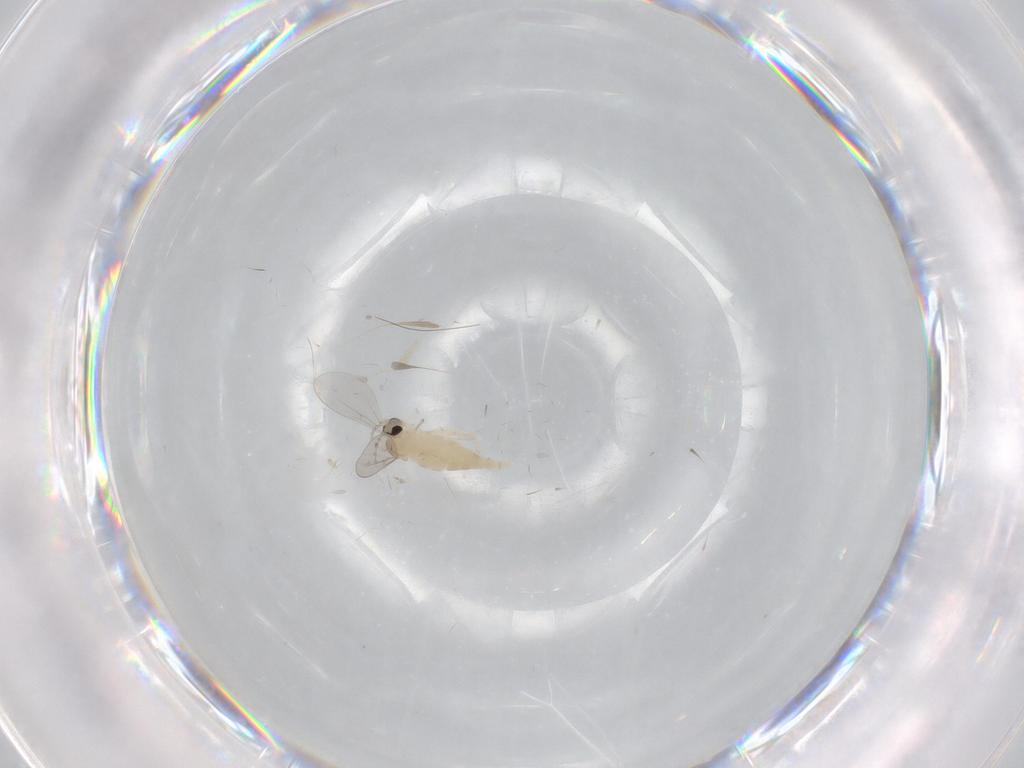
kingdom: Animalia
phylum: Arthropoda
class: Insecta
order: Diptera
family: Cecidomyiidae
